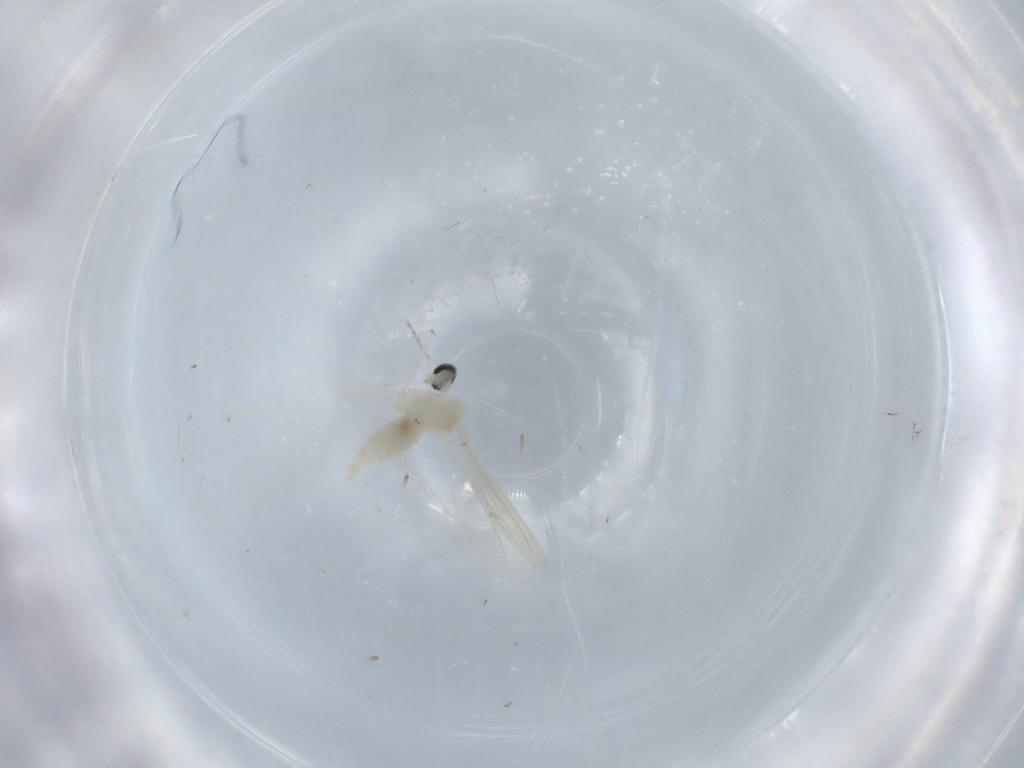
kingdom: Animalia
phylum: Arthropoda
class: Insecta
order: Diptera
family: Cecidomyiidae
